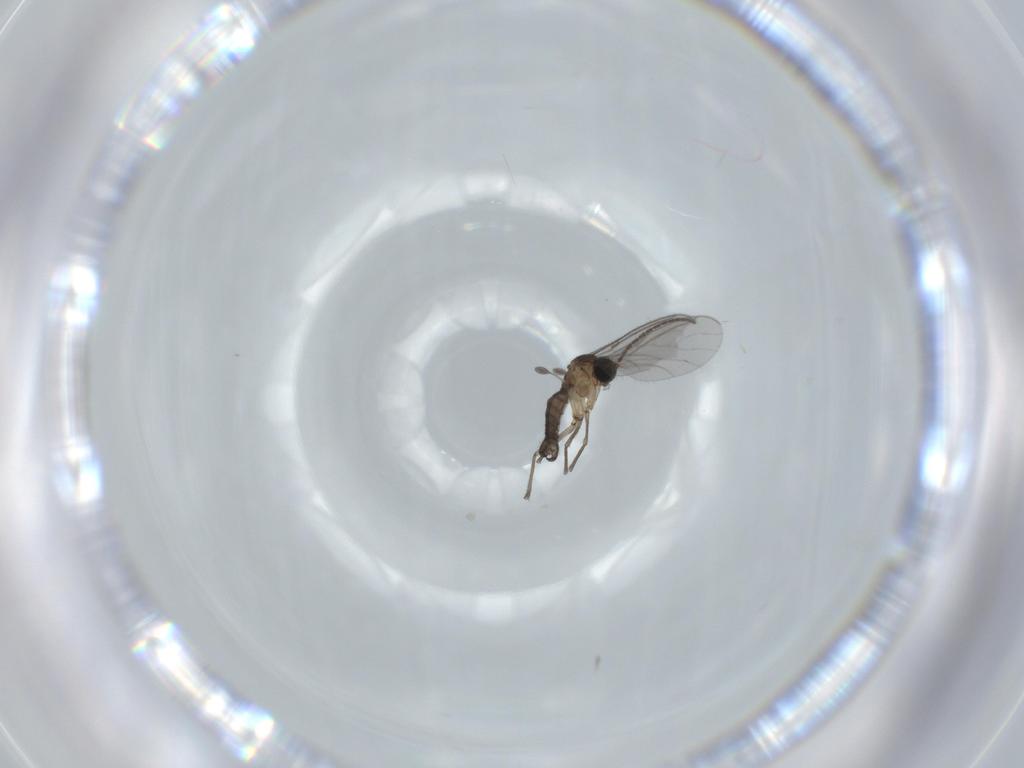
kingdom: Animalia
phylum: Arthropoda
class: Insecta
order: Diptera
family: Sciaridae
